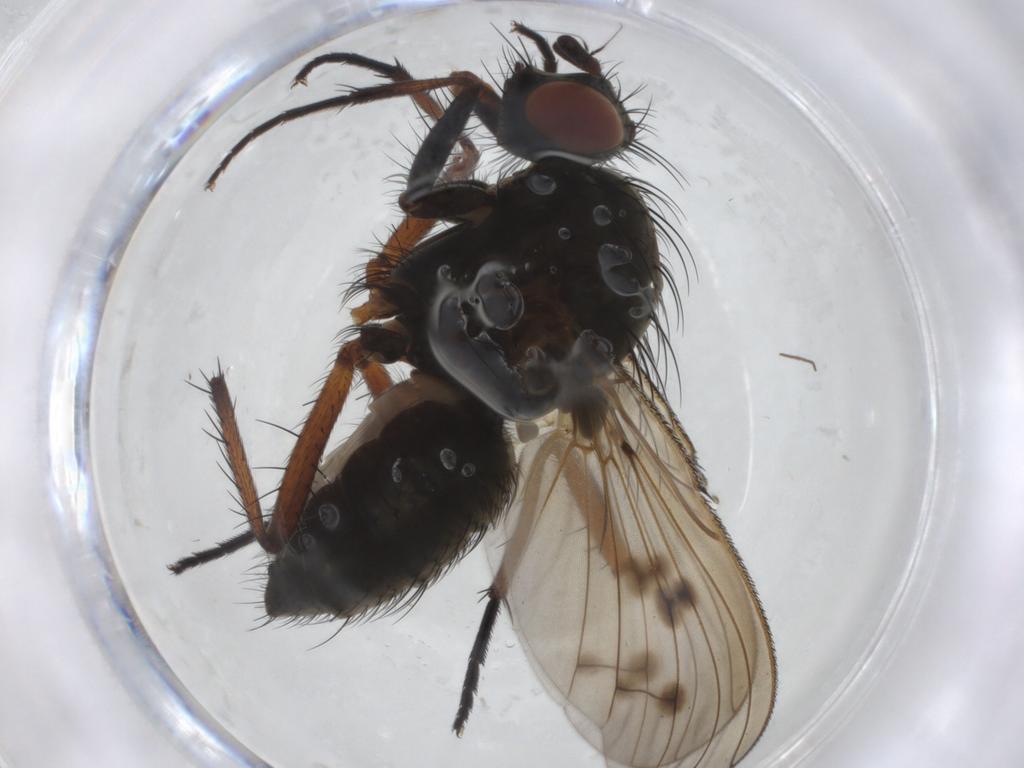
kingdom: Animalia
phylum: Arthropoda
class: Insecta
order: Diptera
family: Anthomyiidae
